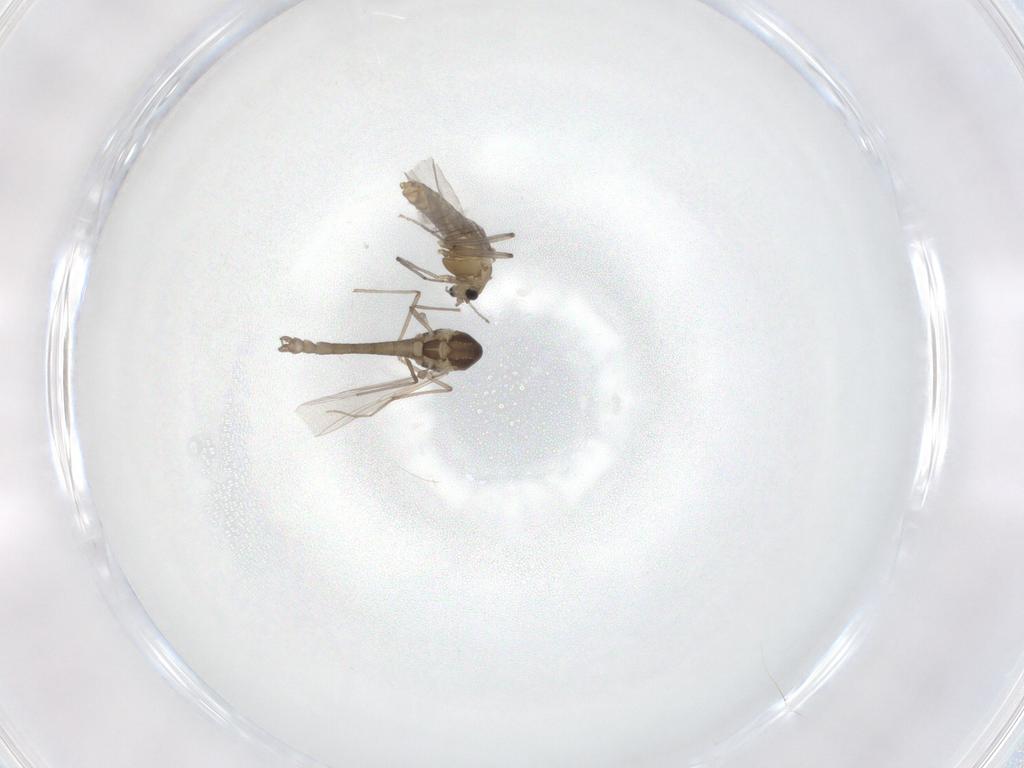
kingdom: Animalia
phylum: Arthropoda
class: Insecta
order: Diptera
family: Chironomidae
